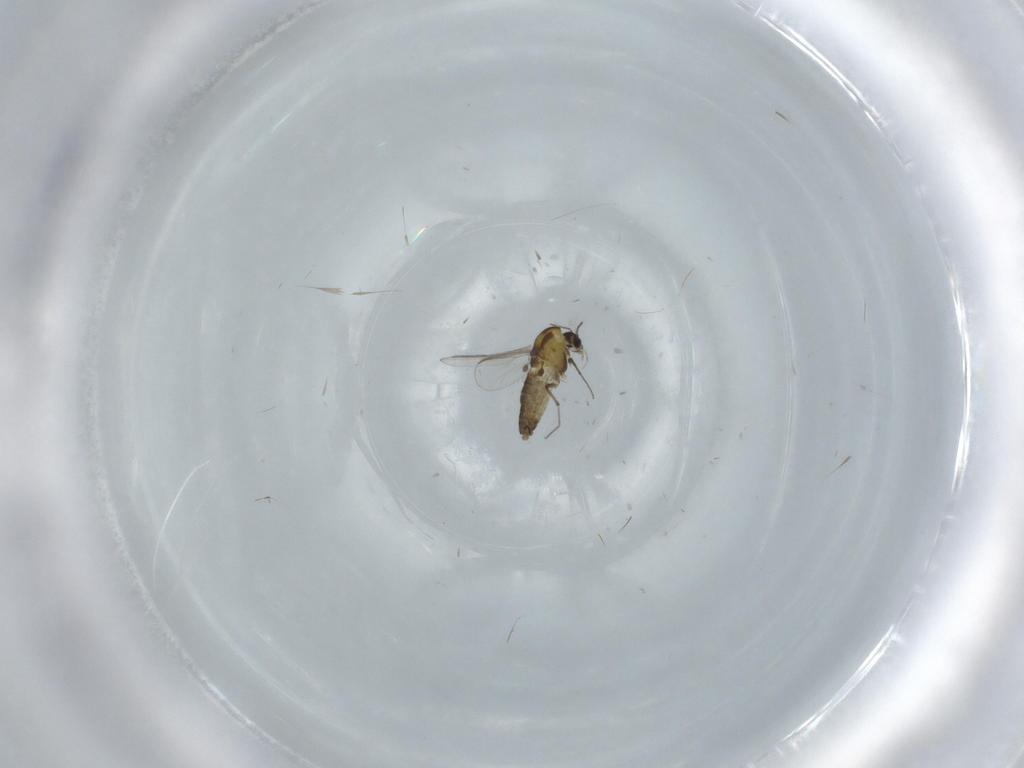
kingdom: Animalia
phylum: Arthropoda
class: Insecta
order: Diptera
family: Chironomidae
